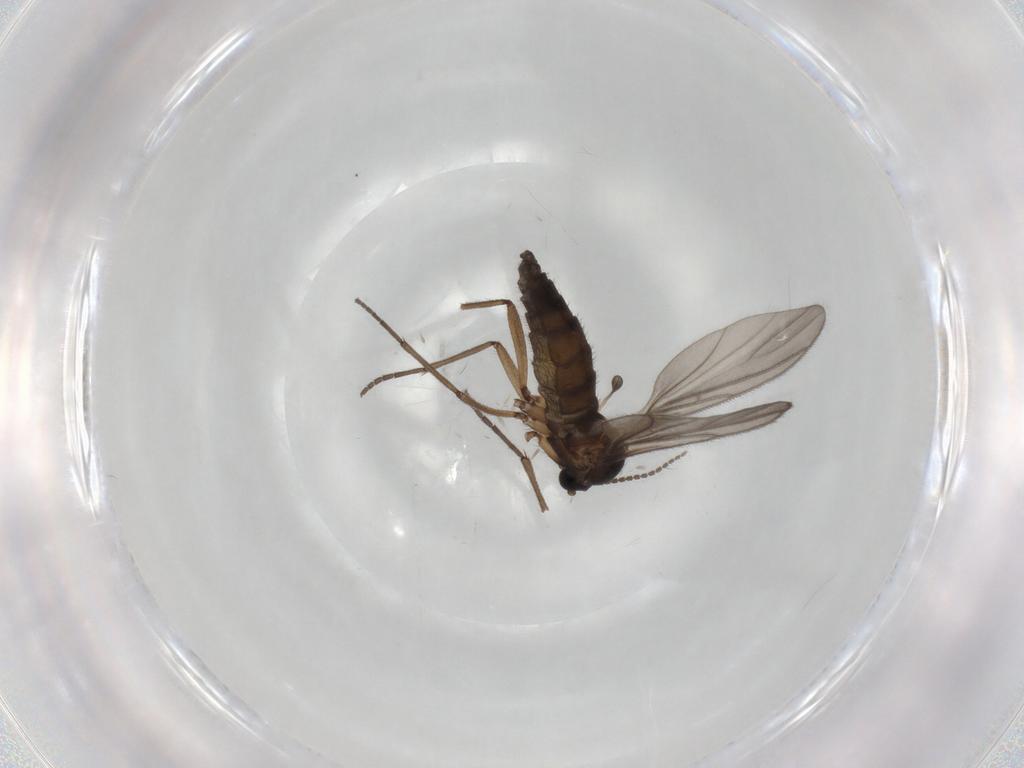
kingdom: Animalia
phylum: Arthropoda
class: Insecta
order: Diptera
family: Sciaridae
